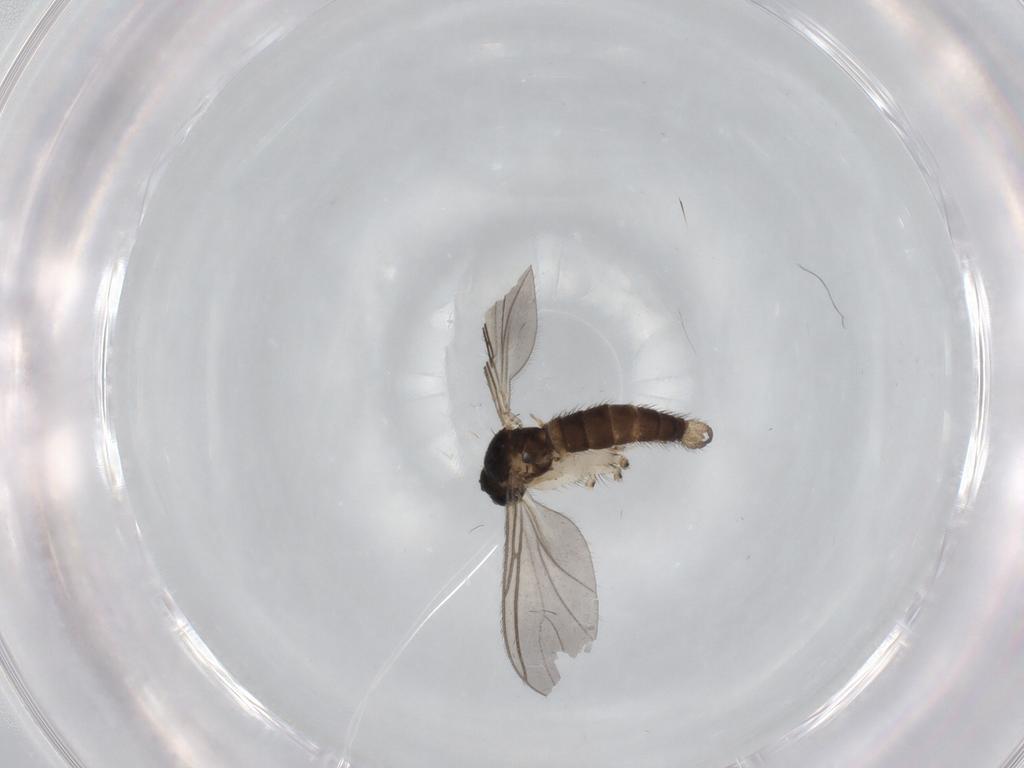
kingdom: Animalia
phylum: Arthropoda
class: Insecta
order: Diptera
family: Sciaridae
